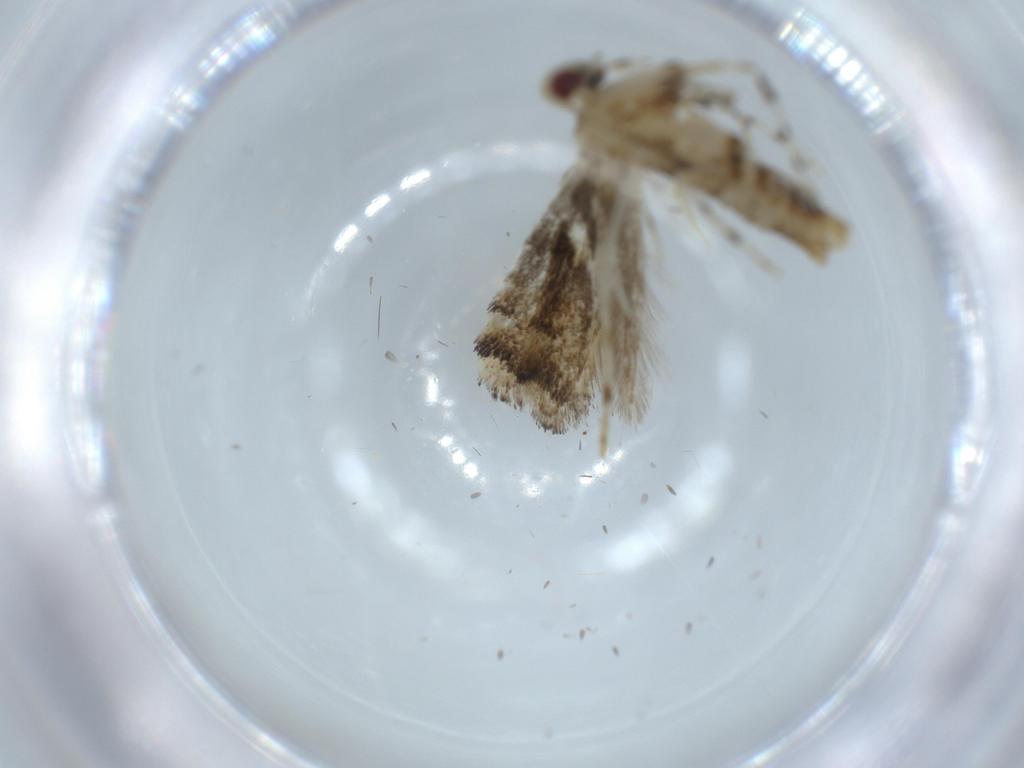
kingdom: Animalia
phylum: Arthropoda
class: Insecta
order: Lepidoptera
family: Gracillariidae
